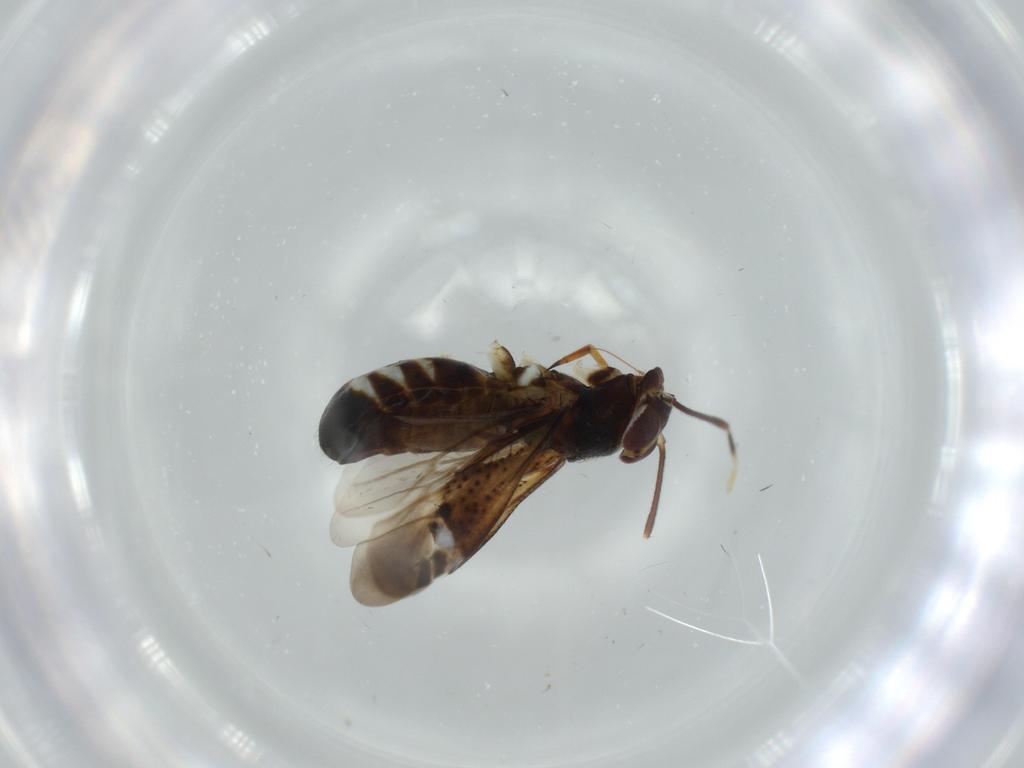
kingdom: Animalia
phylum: Arthropoda
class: Insecta
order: Hemiptera
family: Miridae
